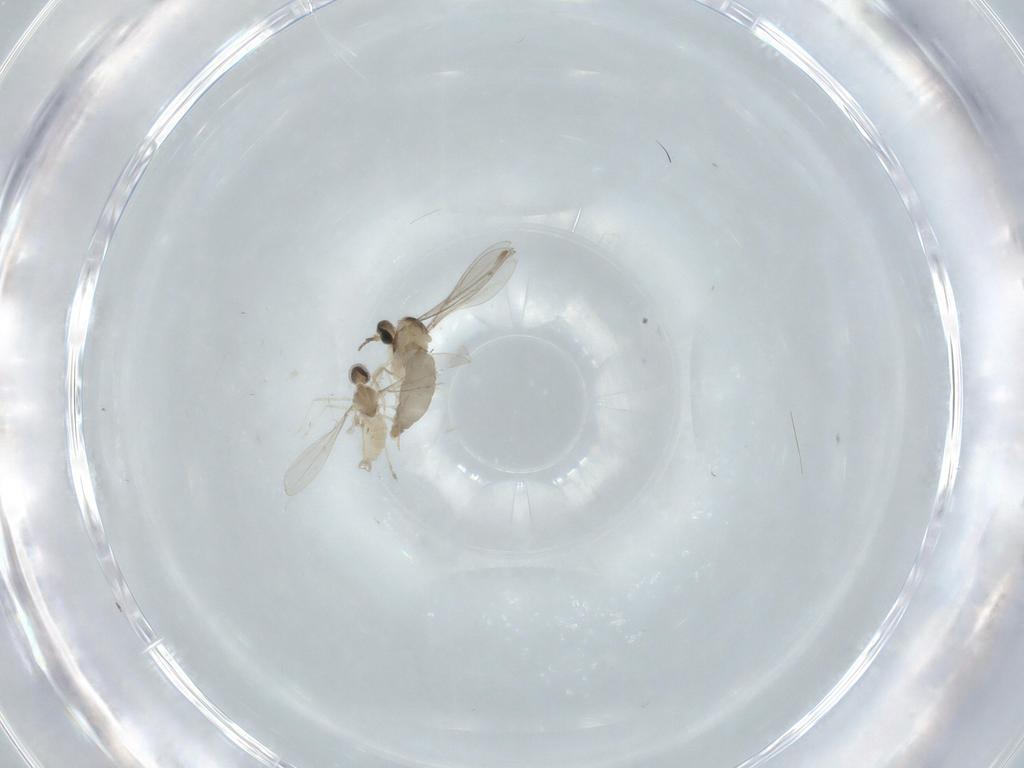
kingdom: Animalia
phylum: Arthropoda
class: Insecta
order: Diptera
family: Cecidomyiidae
